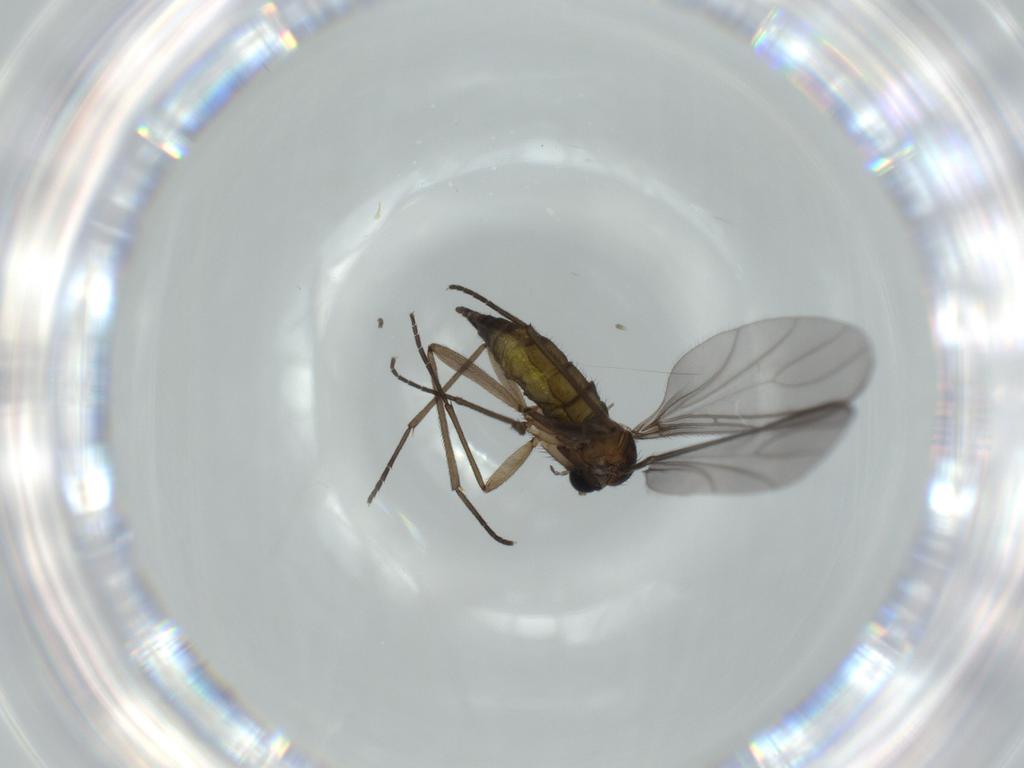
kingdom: Animalia
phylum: Arthropoda
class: Insecta
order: Diptera
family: Sciaridae
